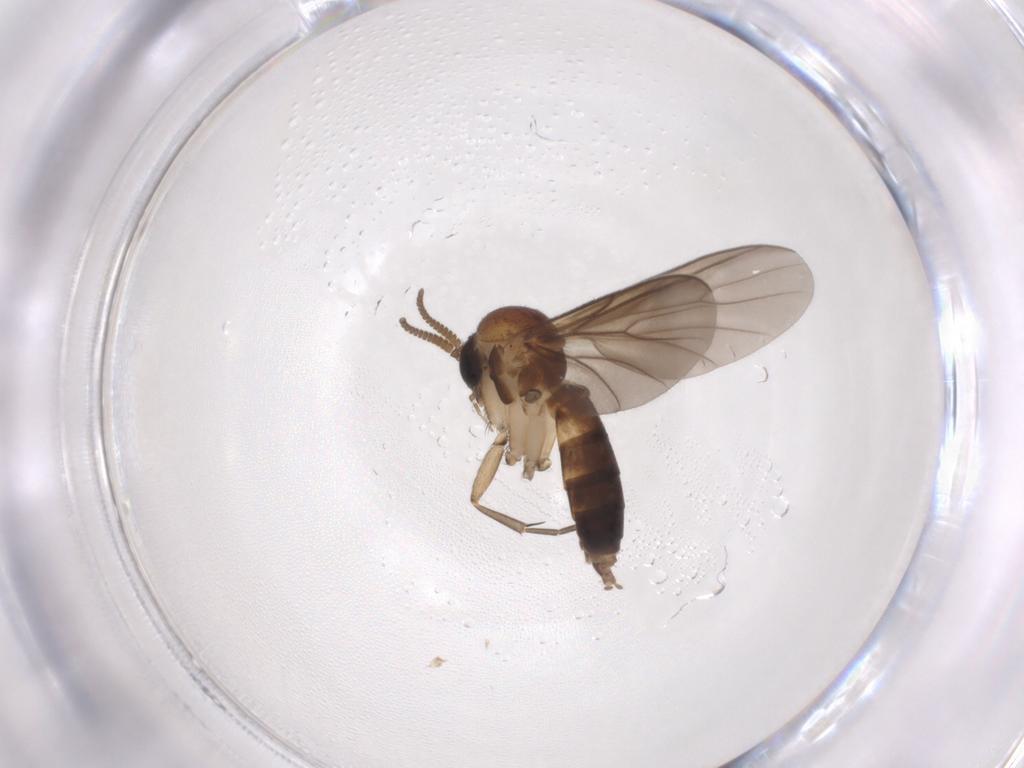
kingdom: Animalia
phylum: Arthropoda
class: Insecta
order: Diptera
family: Mycetophilidae
